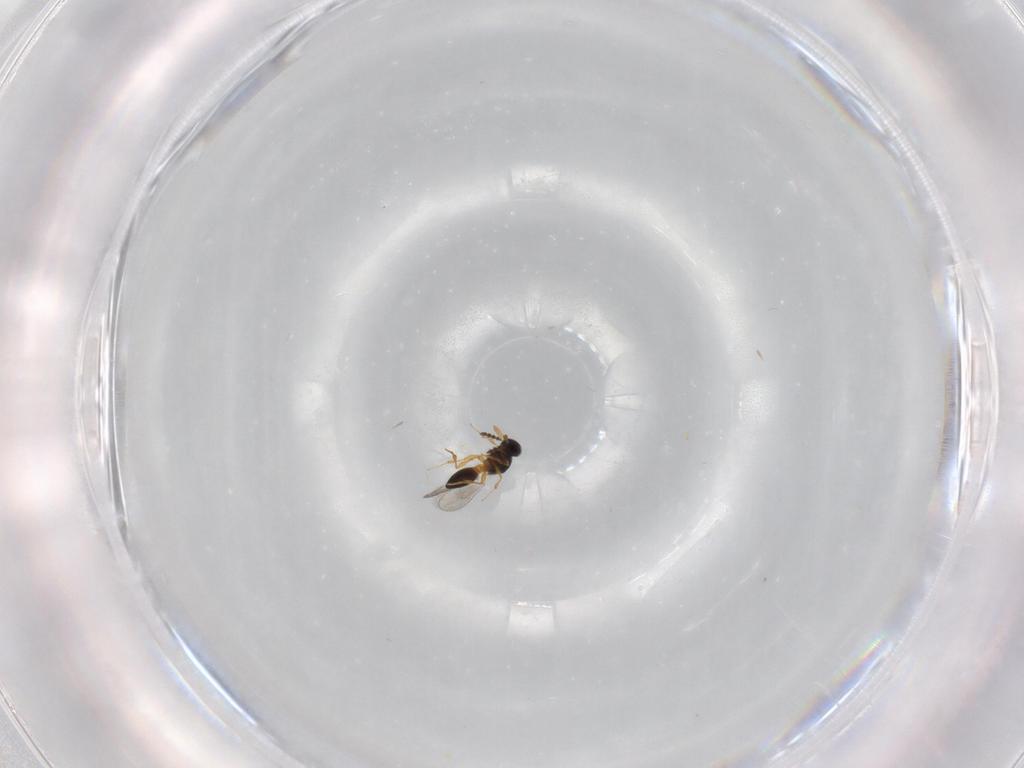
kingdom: Animalia
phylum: Arthropoda
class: Insecta
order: Hymenoptera
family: Platygastridae
